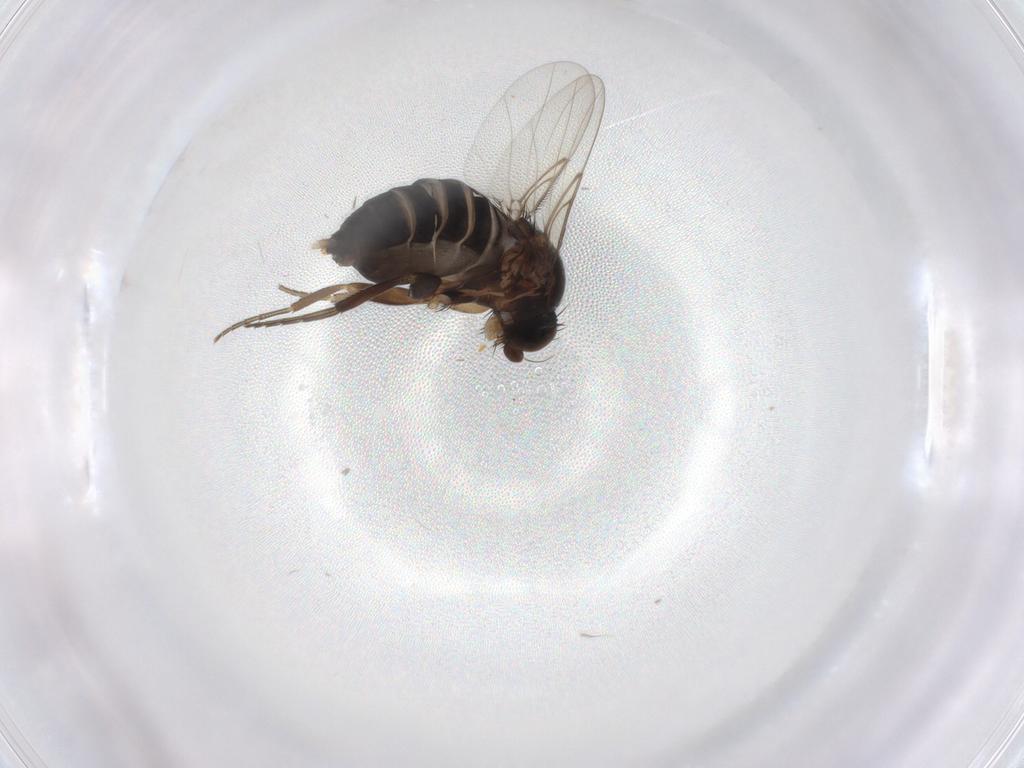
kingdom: Animalia
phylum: Arthropoda
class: Insecta
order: Diptera
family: Phoridae
